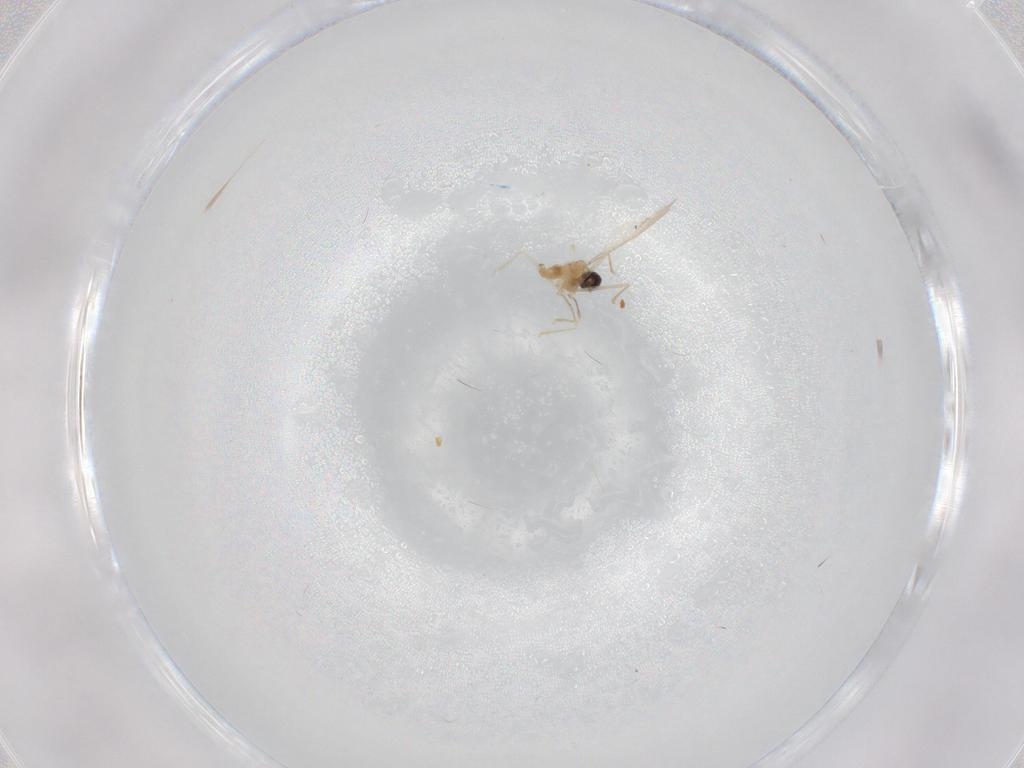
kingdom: Animalia
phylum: Arthropoda
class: Insecta
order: Diptera
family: Cecidomyiidae
